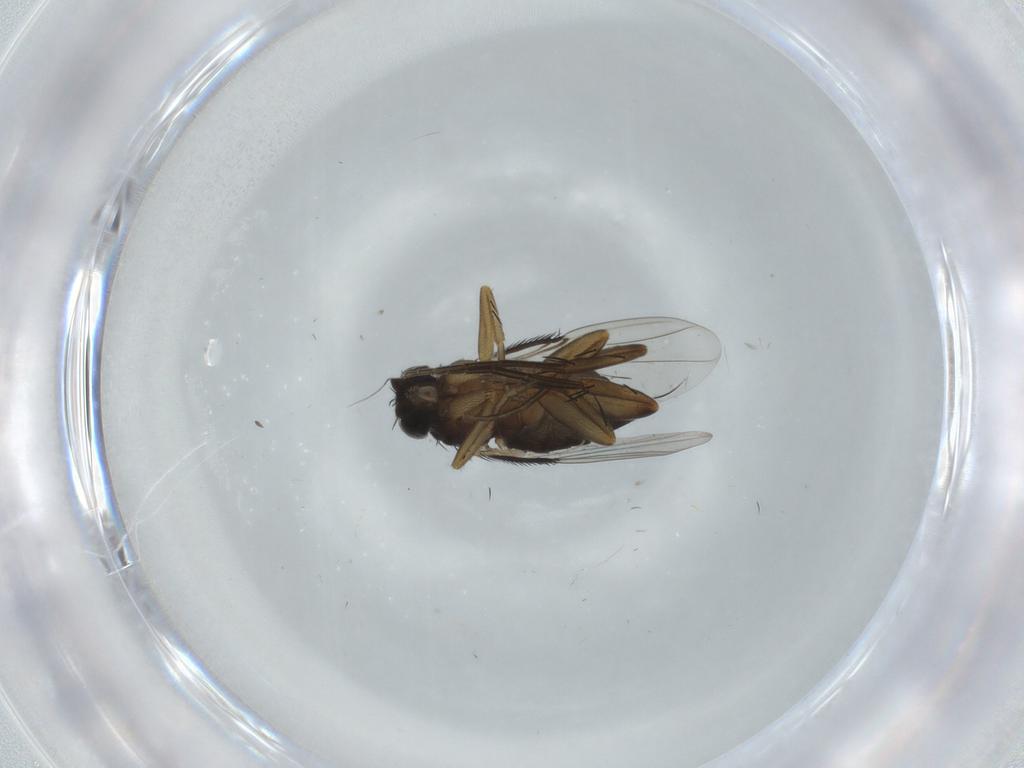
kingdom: Animalia
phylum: Arthropoda
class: Insecta
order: Diptera
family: Phoridae
